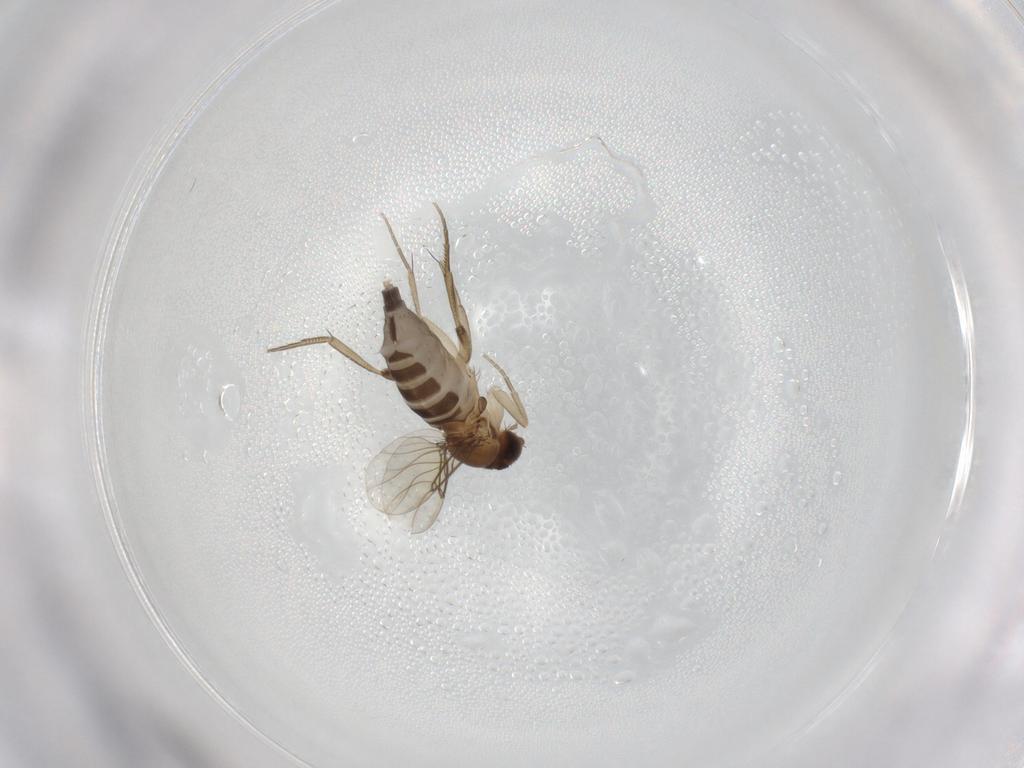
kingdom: Animalia
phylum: Arthropoda
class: Insecta
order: Diptera
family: Phoridae
